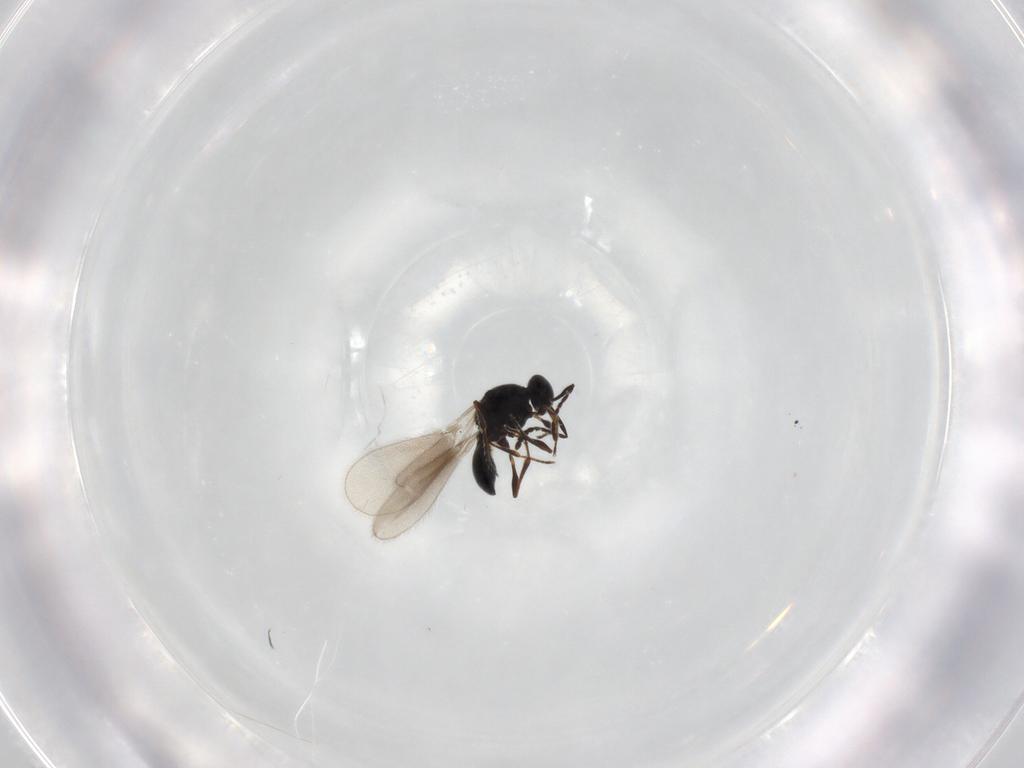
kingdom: Animalia
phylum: Arthropoda
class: Insecta
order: Hymenoptera
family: Platygastridae
